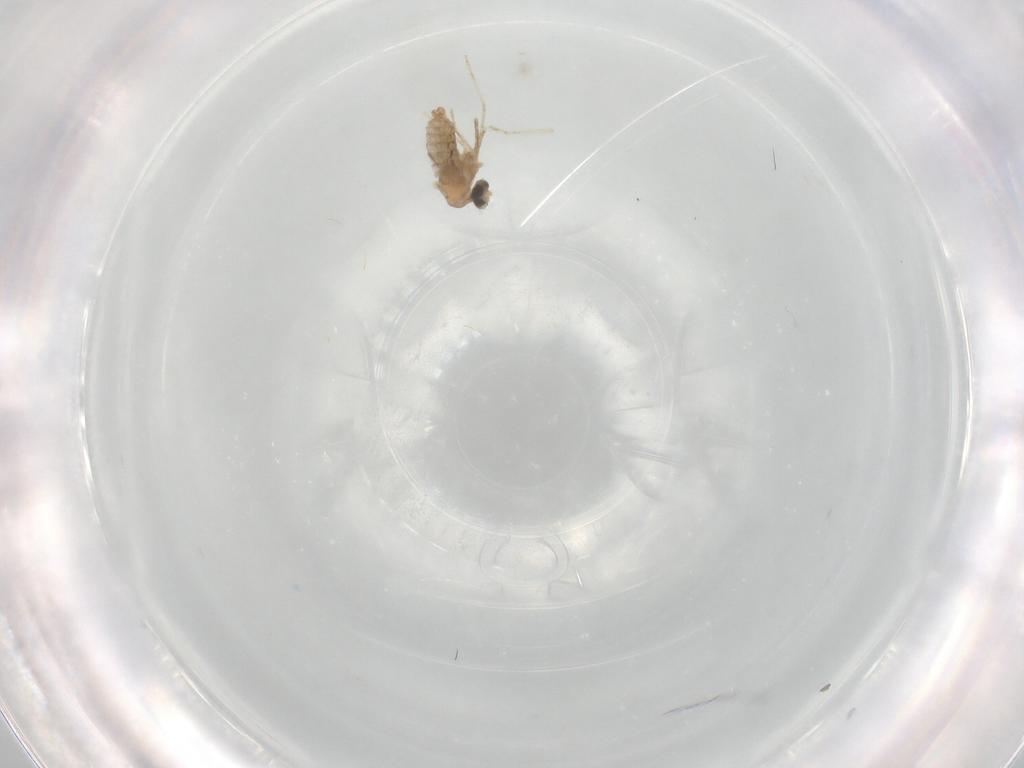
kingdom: Animalia
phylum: Arthropoda
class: Insecta
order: Diptera
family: Cecidomyiidae
